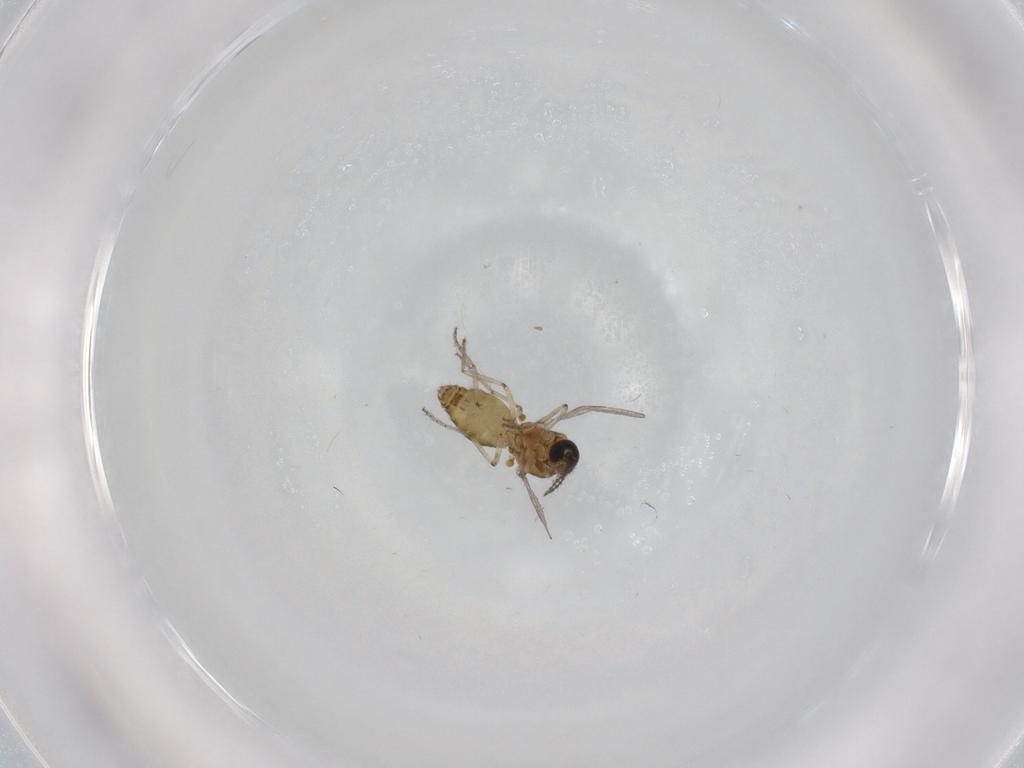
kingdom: Animalia
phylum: Arthropoda
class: Insecta
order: Diptera
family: Ceratopogonidae
